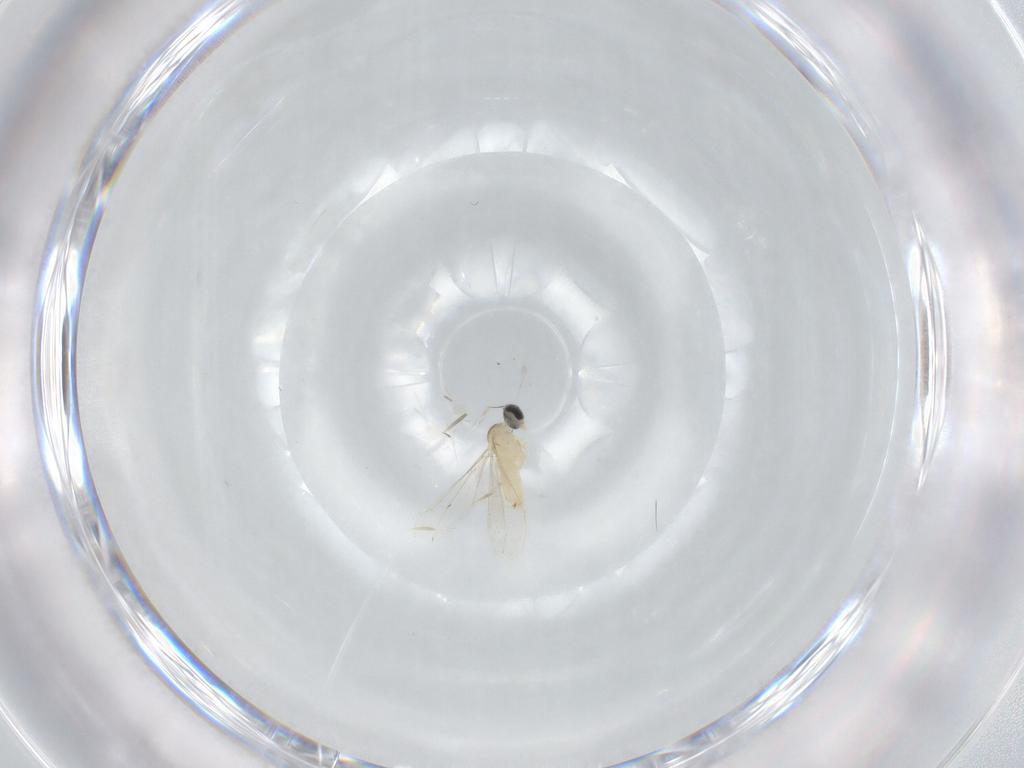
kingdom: Animalia
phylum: Arthropoda
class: Insecta
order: Diptera
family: Cecidomyiidae
